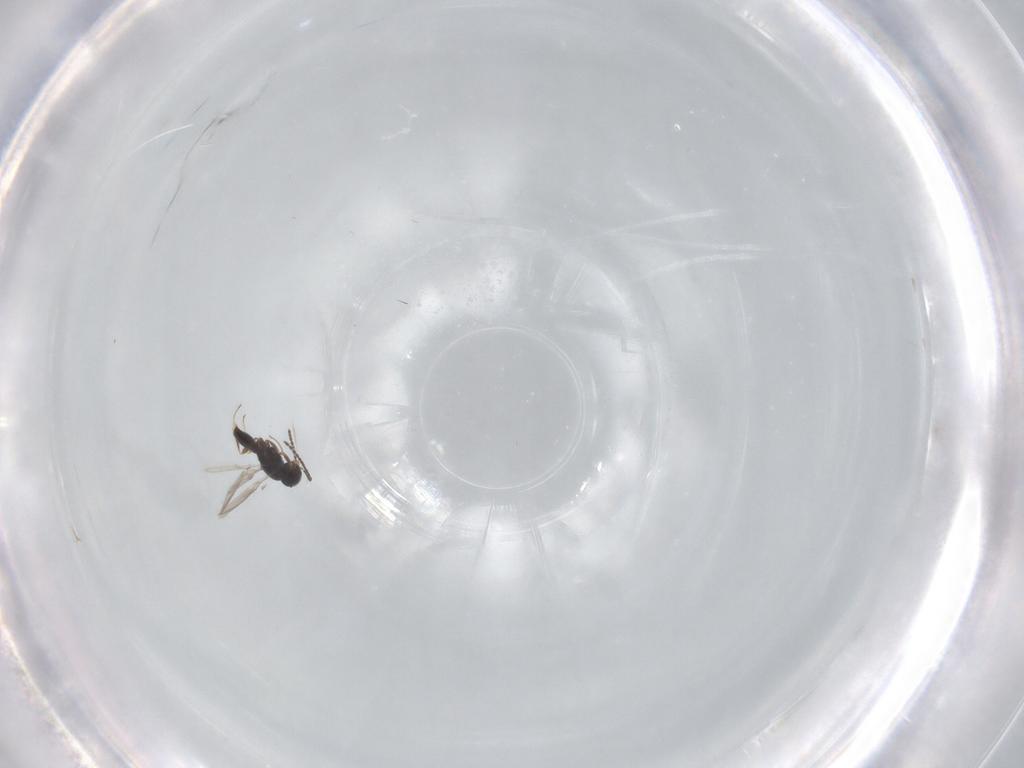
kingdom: Animalia
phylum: Arthropoda
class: Insecta
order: Hymenoptera
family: Scelionidae
